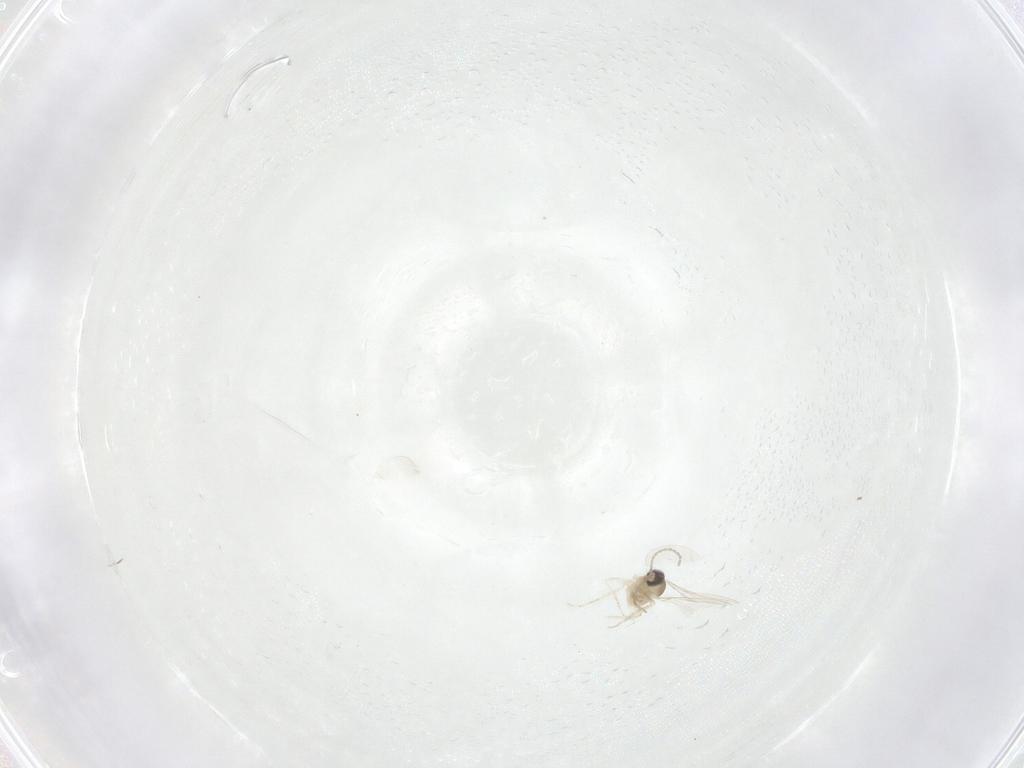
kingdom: Animalia
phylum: Arthropoda
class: Insecta
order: Diptera
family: Cecidomyiidae
